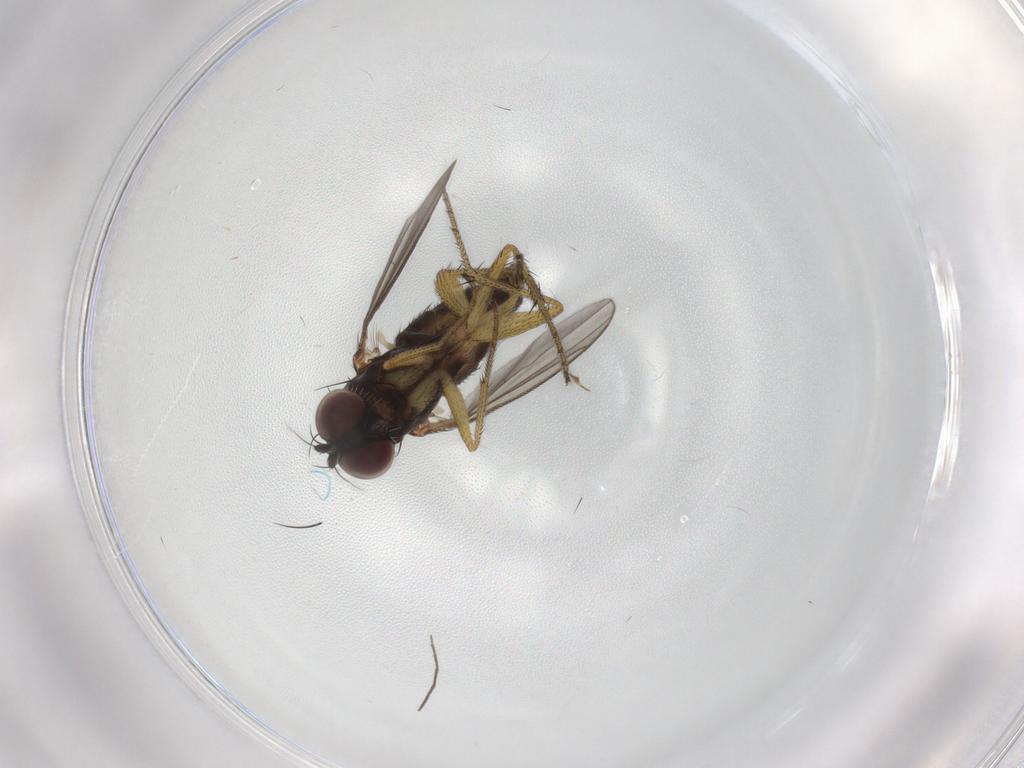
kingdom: Animalia
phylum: Arthropoda
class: Insecta
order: Diptera
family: Dolichopodidae
